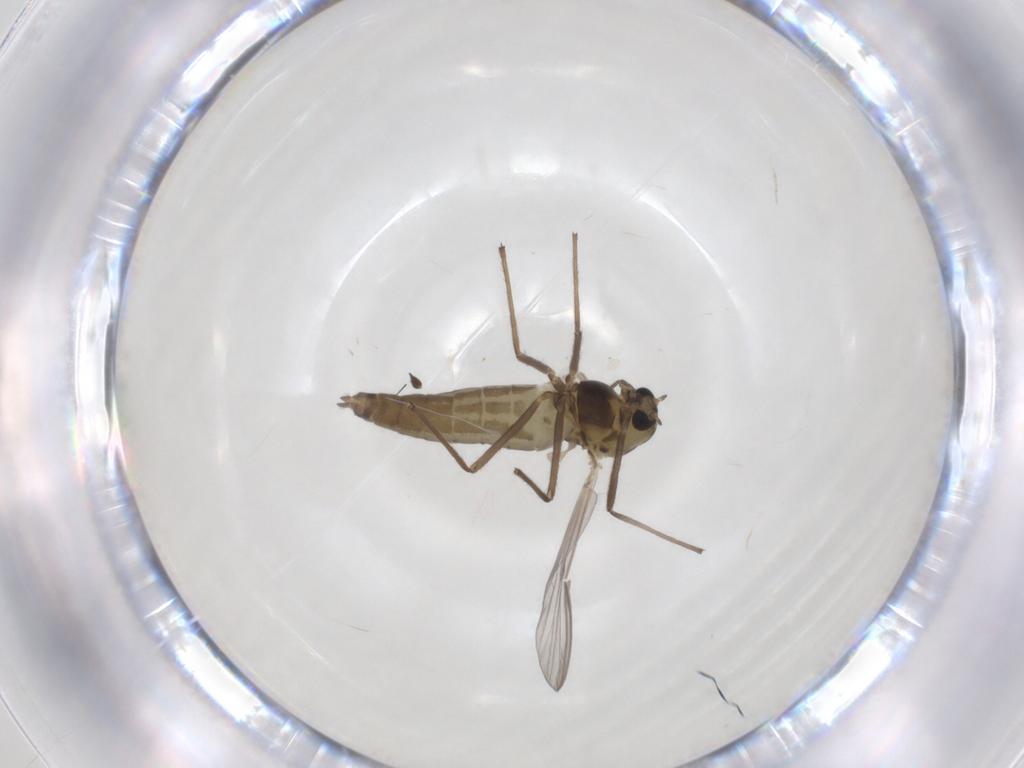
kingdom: Animalia
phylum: Arthropoda
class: Insecta
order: Diptera
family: Chironomidae
